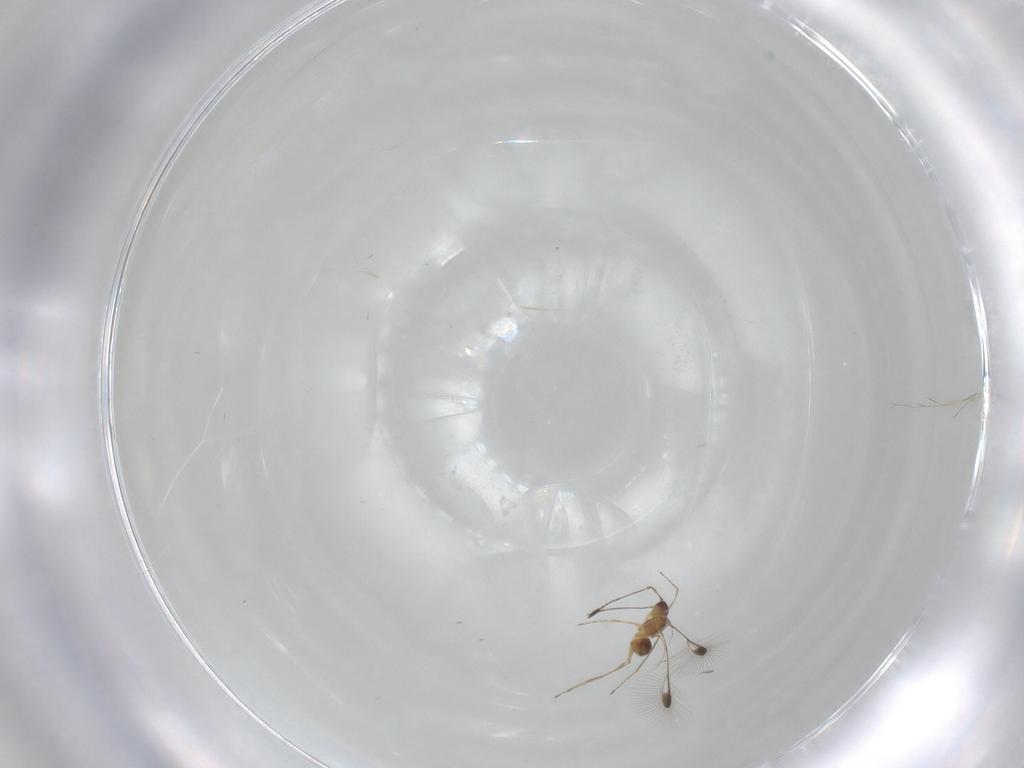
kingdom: Animalia
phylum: Arthropoda
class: Insecta
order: Hymenoptera
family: Mymaridae
